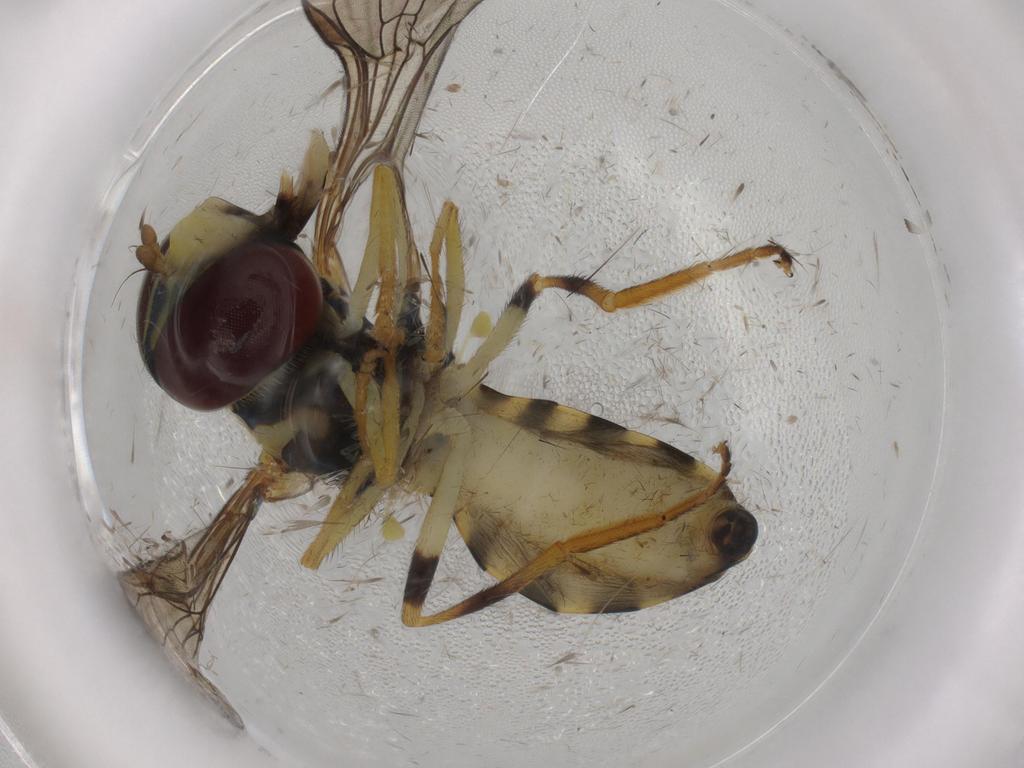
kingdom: Animalia
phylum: Arthropoda
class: Insecta
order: Diptera
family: Syrphidae
